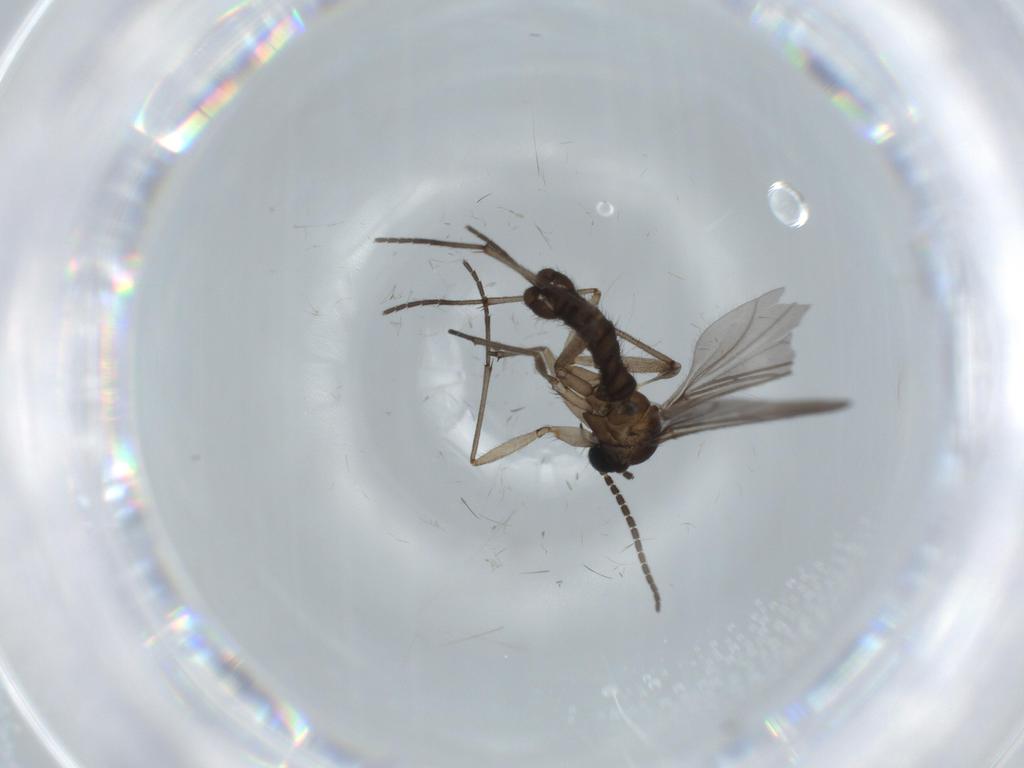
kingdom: Animalia
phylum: Arthropoda
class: Insecta
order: Diptera
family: Sciaridae
